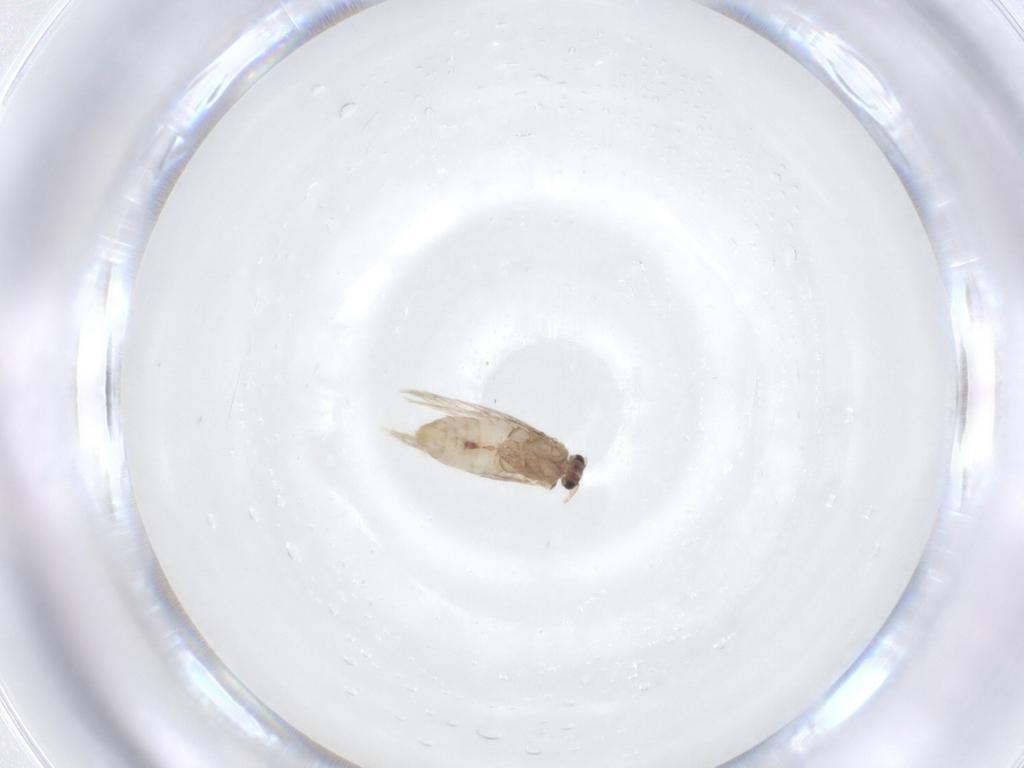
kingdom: Animalia
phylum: Arthropoda
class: Insecta
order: Lepidoptera
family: Nepticulidae
